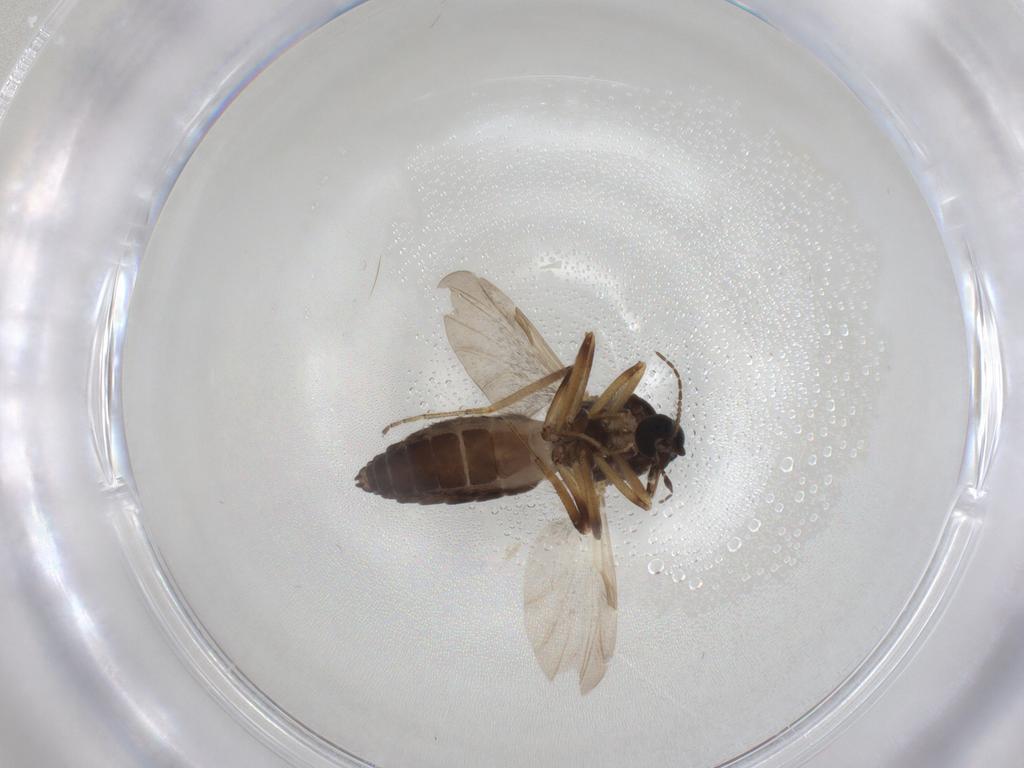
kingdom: Animalia
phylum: Arthropoda
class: Insecta
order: Diptera
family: Ceratopogonidae
